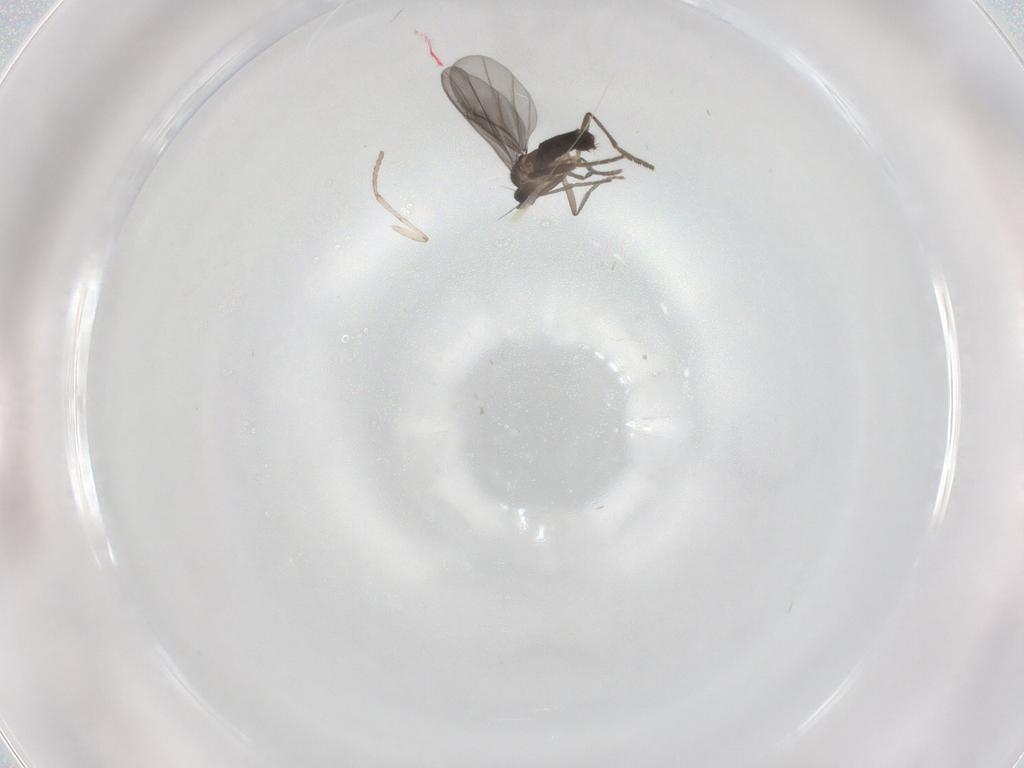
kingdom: Animalia
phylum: Arthropoda
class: Insecta
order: Diptera
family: Phoridae
